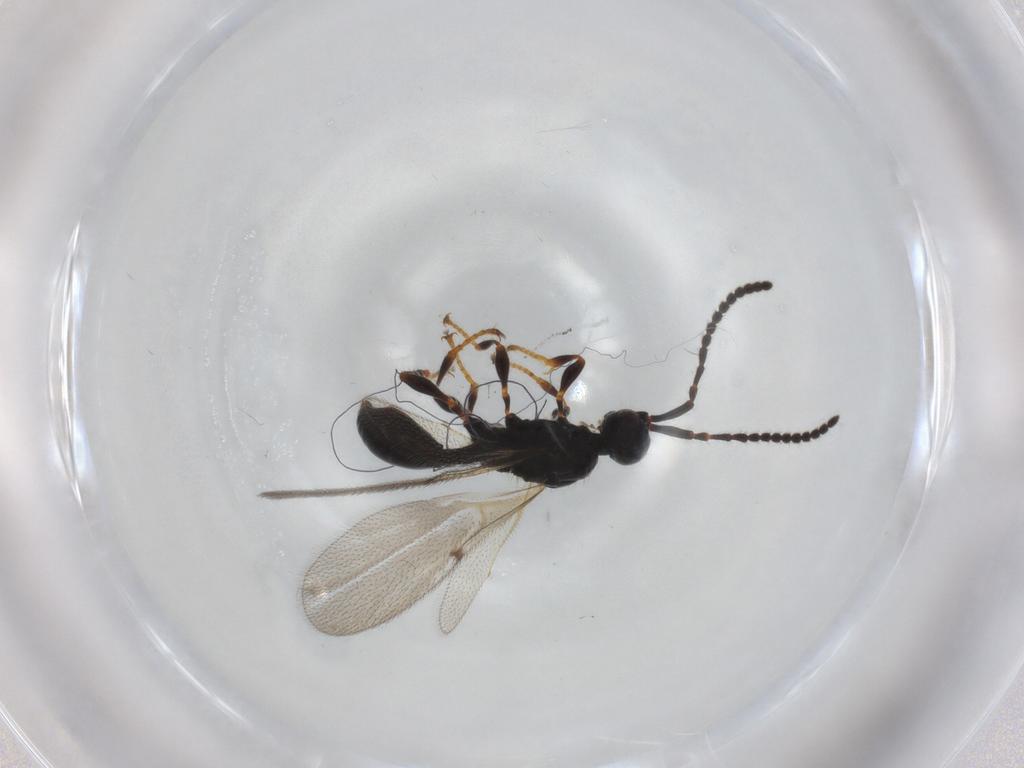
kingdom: Animalia
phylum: Arthropoda
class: Insecta
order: Hymenoptera
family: Diapriidae
